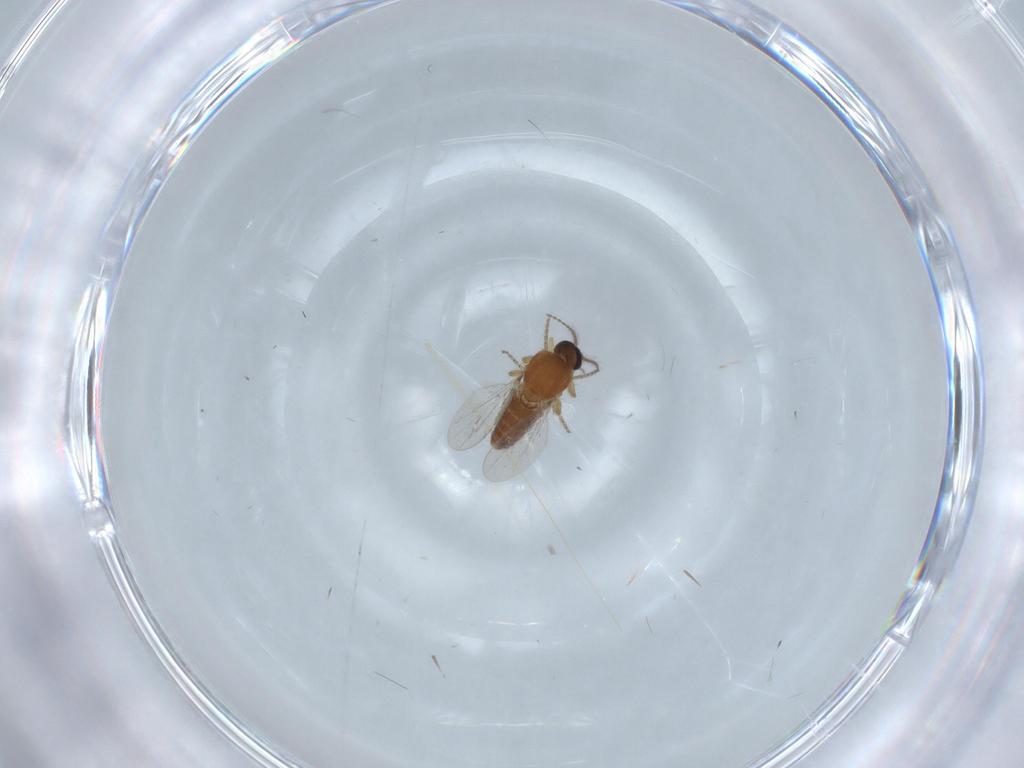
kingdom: Animalia
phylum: Arthropoda
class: Insecta
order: Diptera
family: Ceratopogonidae
